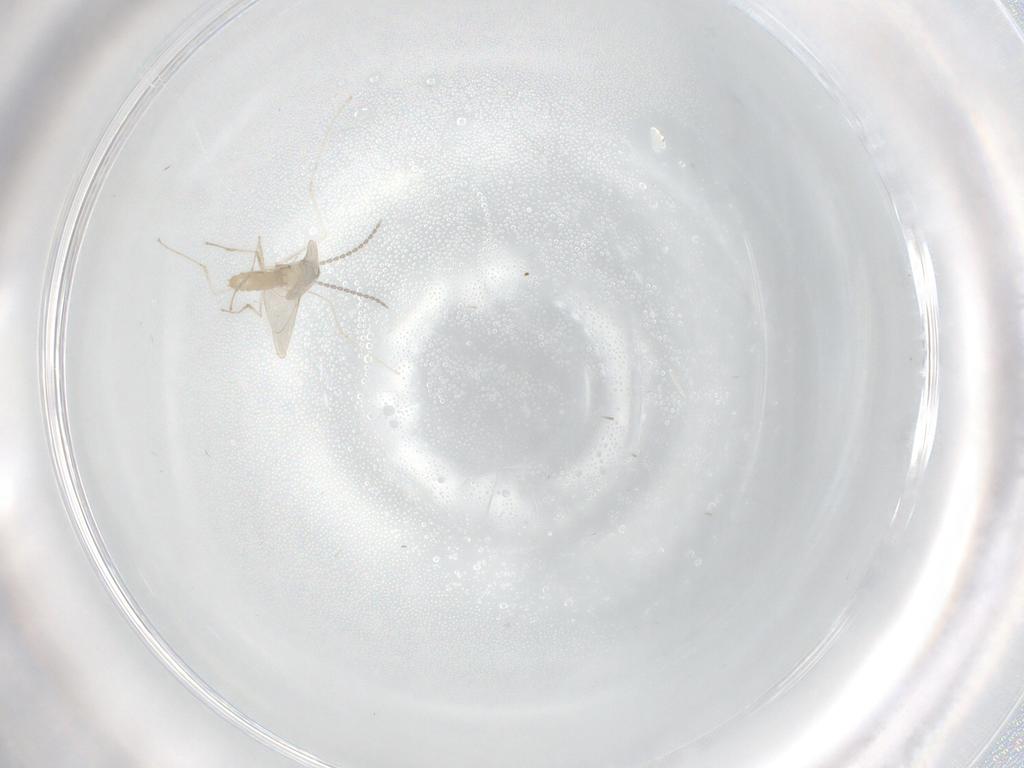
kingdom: Animalia
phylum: Arthropoda
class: Insecta
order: Diptera
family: Cecidomyiidae
